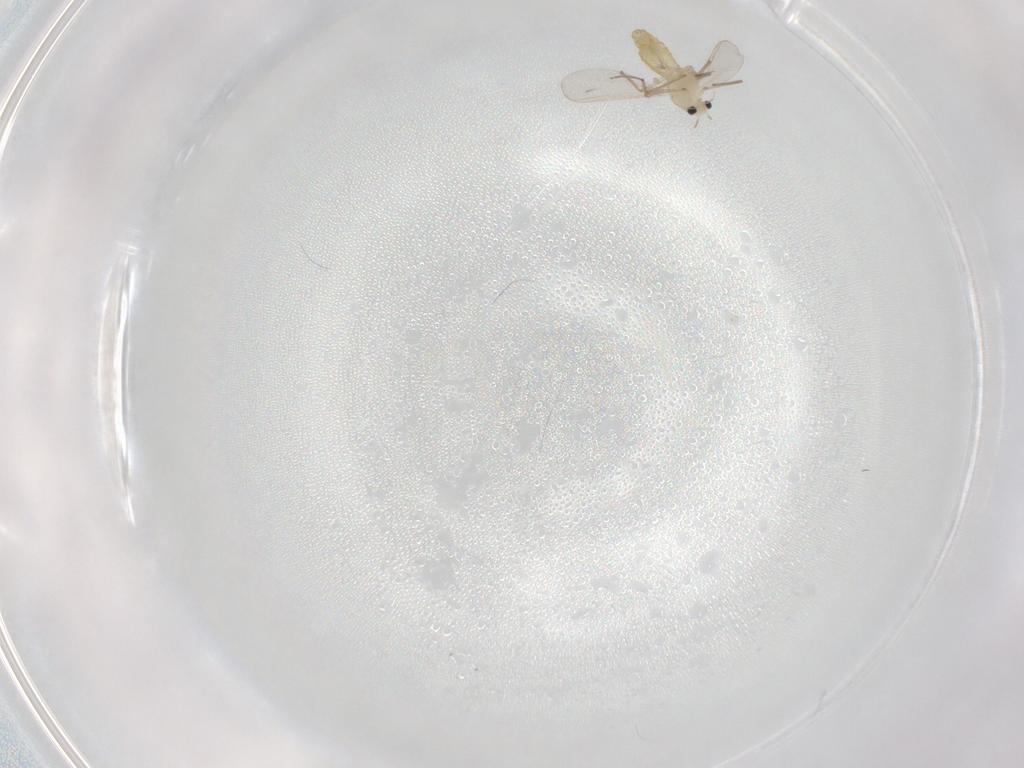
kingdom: Animalia
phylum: Arthropoda
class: Insecta
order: Diptera
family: Chironomidae
